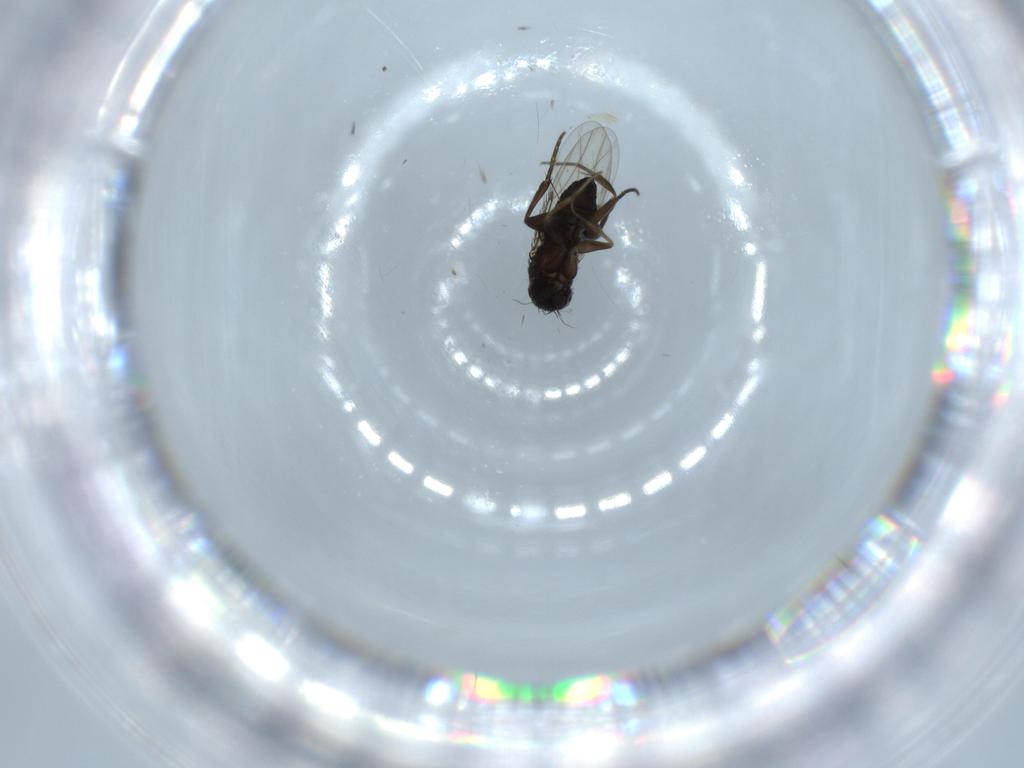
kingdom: Animalia
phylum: Arthropoda
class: Insecta
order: Diptera
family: Phoridae
